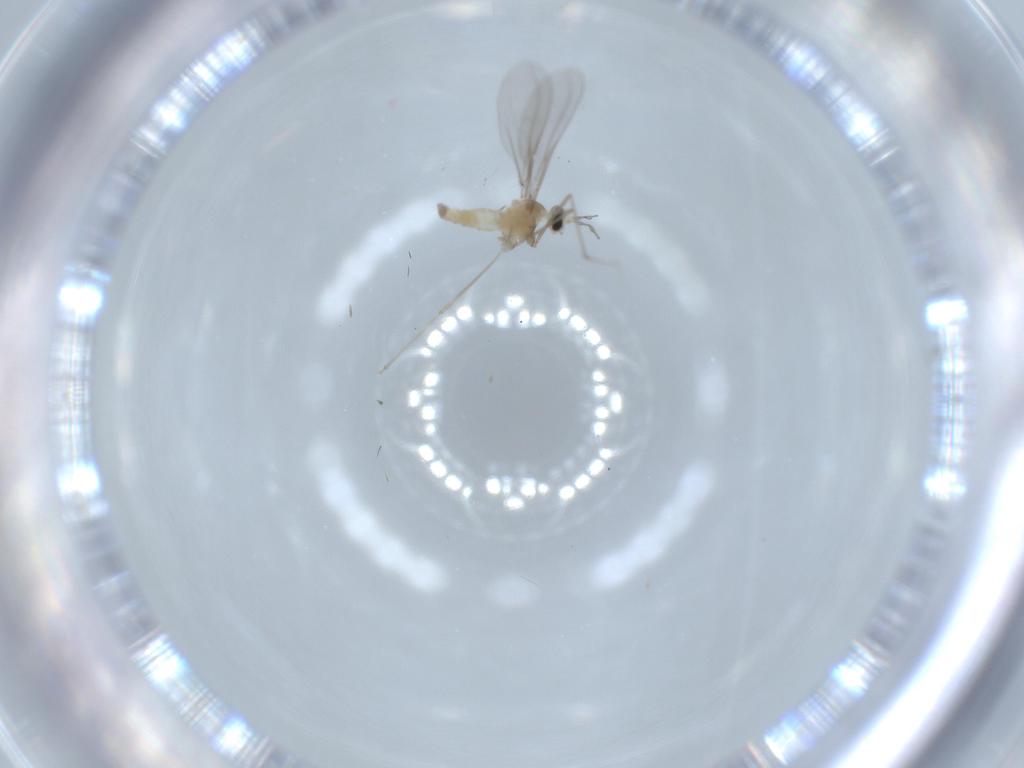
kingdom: Animalia
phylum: Arthropoda
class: Insecta
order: Diptera
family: Cecidomyiidae
